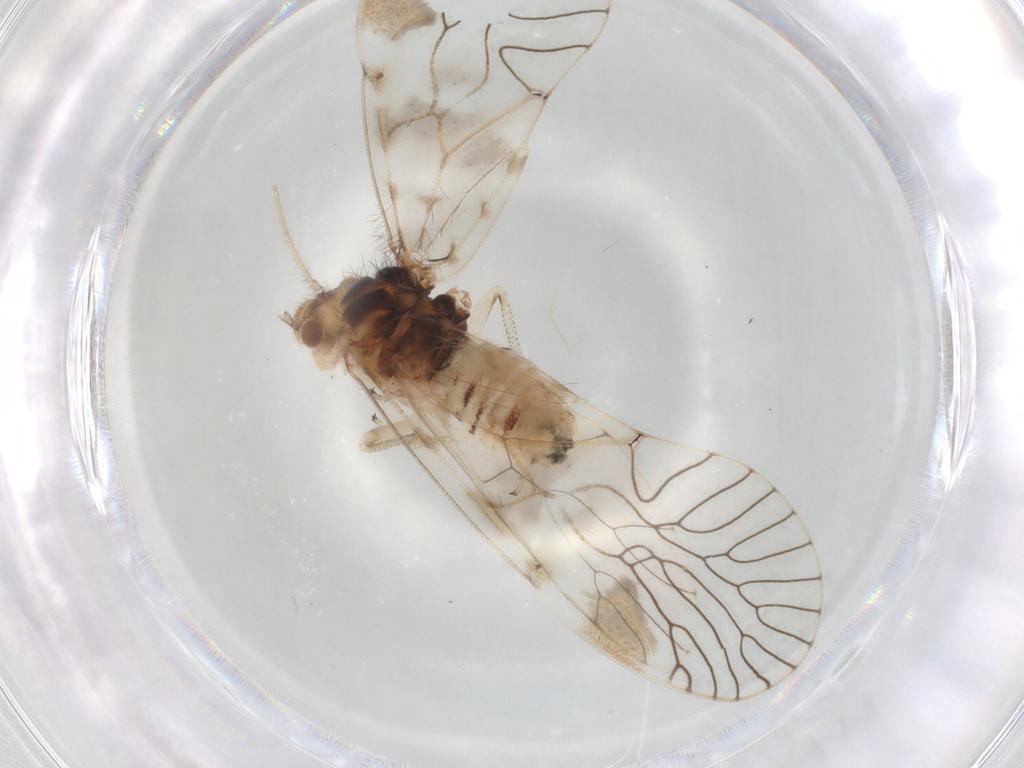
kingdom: Animalia
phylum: Arthropoda
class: Insecta
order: Psocodea
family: Amphipsocidae
